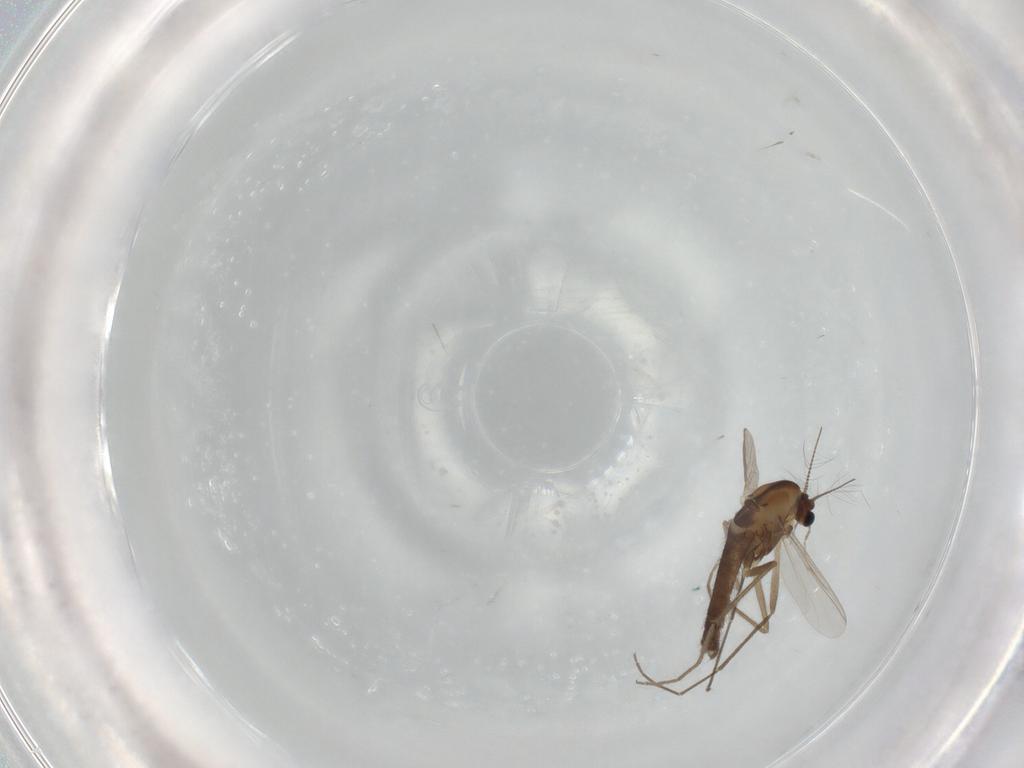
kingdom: Animalia
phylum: Arthropoda
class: Insecta
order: Diptera
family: Chironomidae
